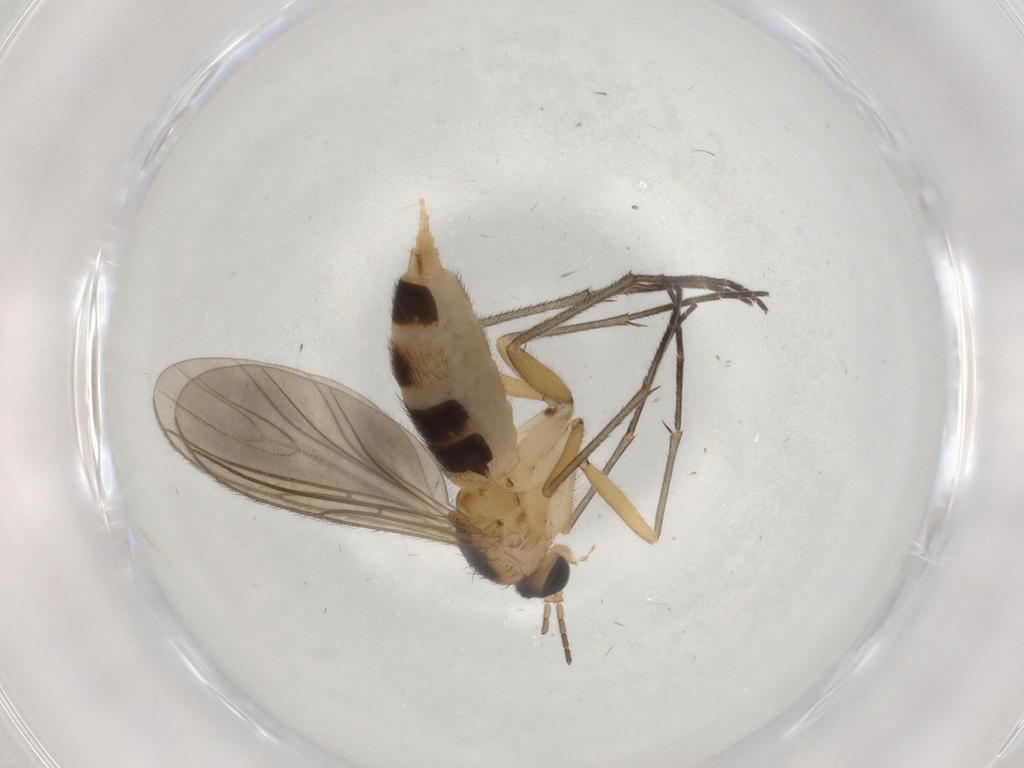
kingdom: Animalia
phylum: Arthropoda
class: Insecta
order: Diptera
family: Sciaridae
